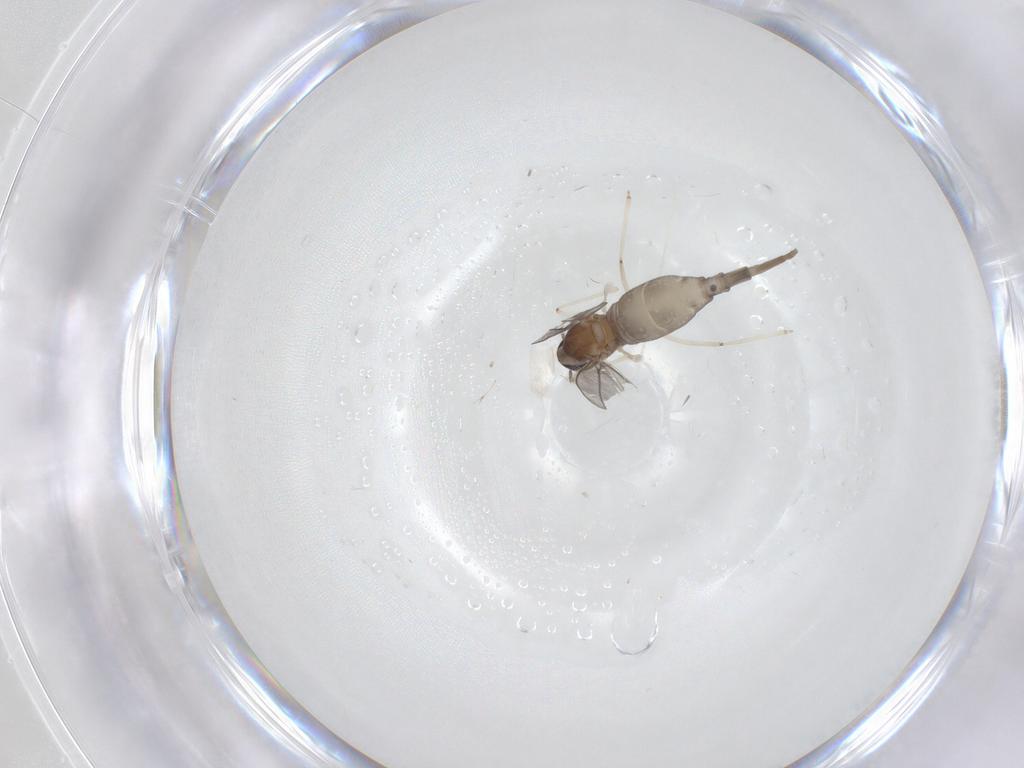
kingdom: Animalia
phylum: Arthropoda
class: Insecta
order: Diptera
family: Cecidomyiidae
